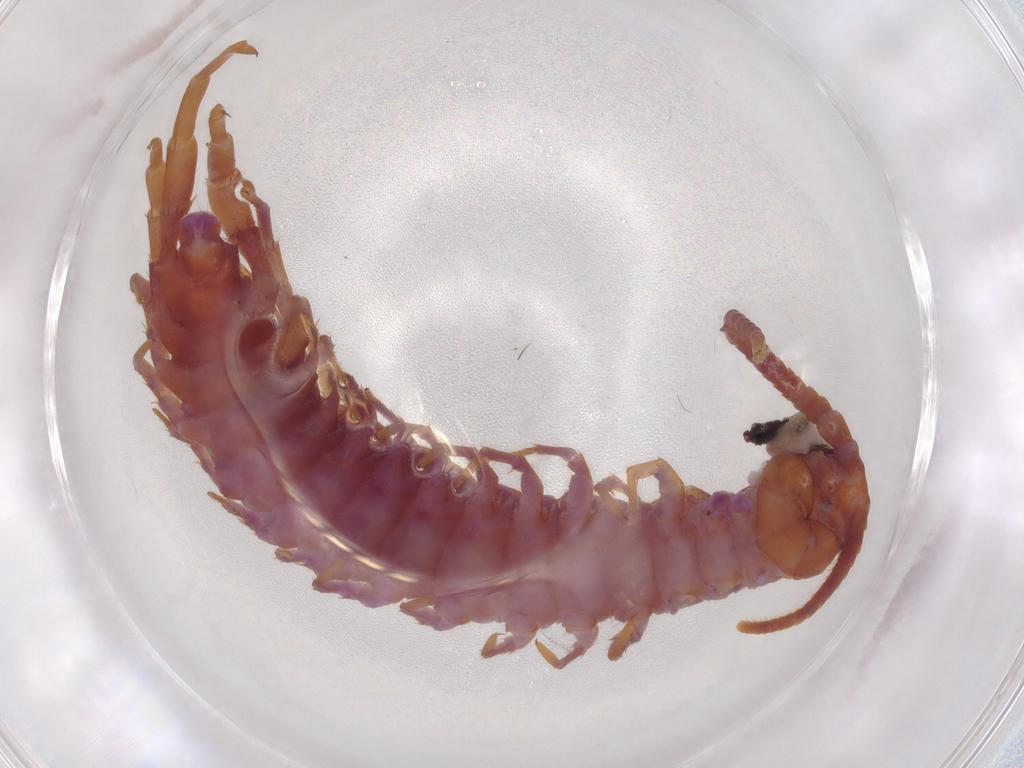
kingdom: Animalia
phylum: Arthropoda
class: Chilopoda
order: Lithobiomorpha
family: Lithobiidae
